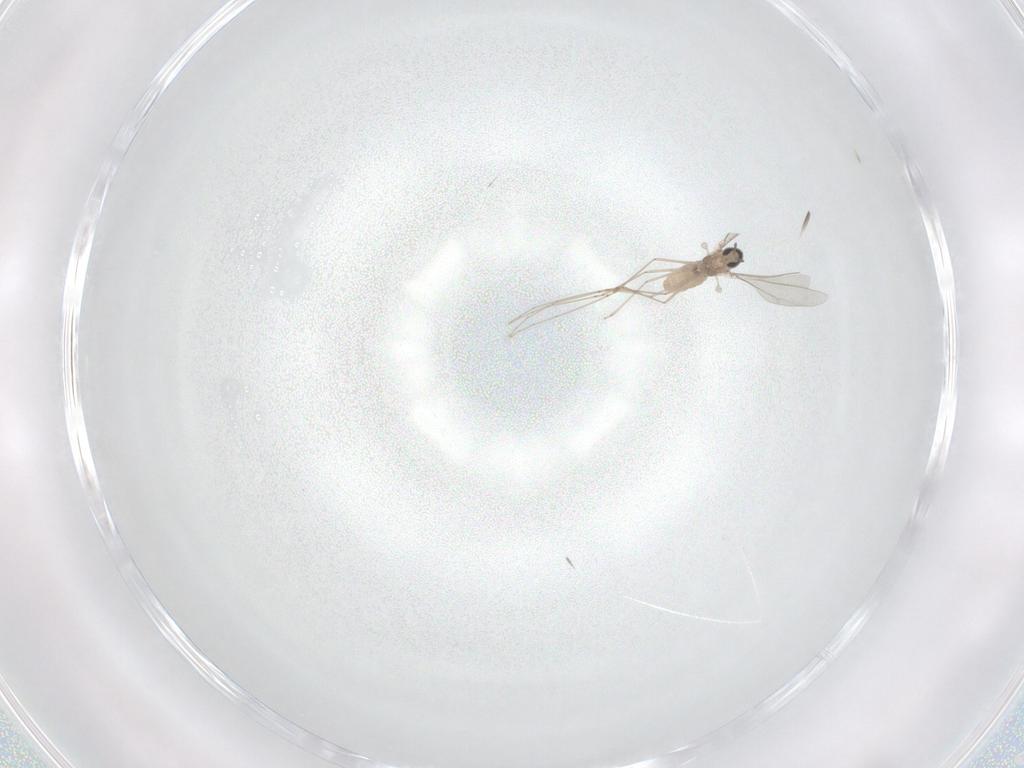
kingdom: Animalia
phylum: Arthropoda
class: Insecta
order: Diptera
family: Cecidomyiidae
